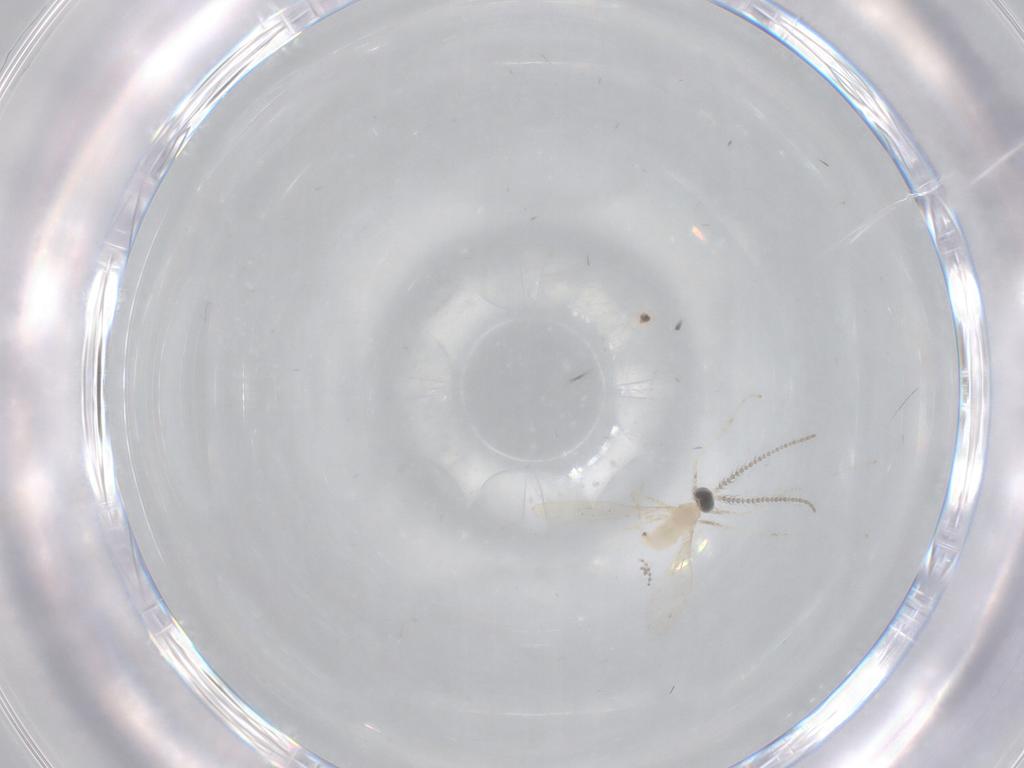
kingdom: Animalia
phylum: Arthropoda
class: Insecta
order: Diptera
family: Cecidomyiidae
